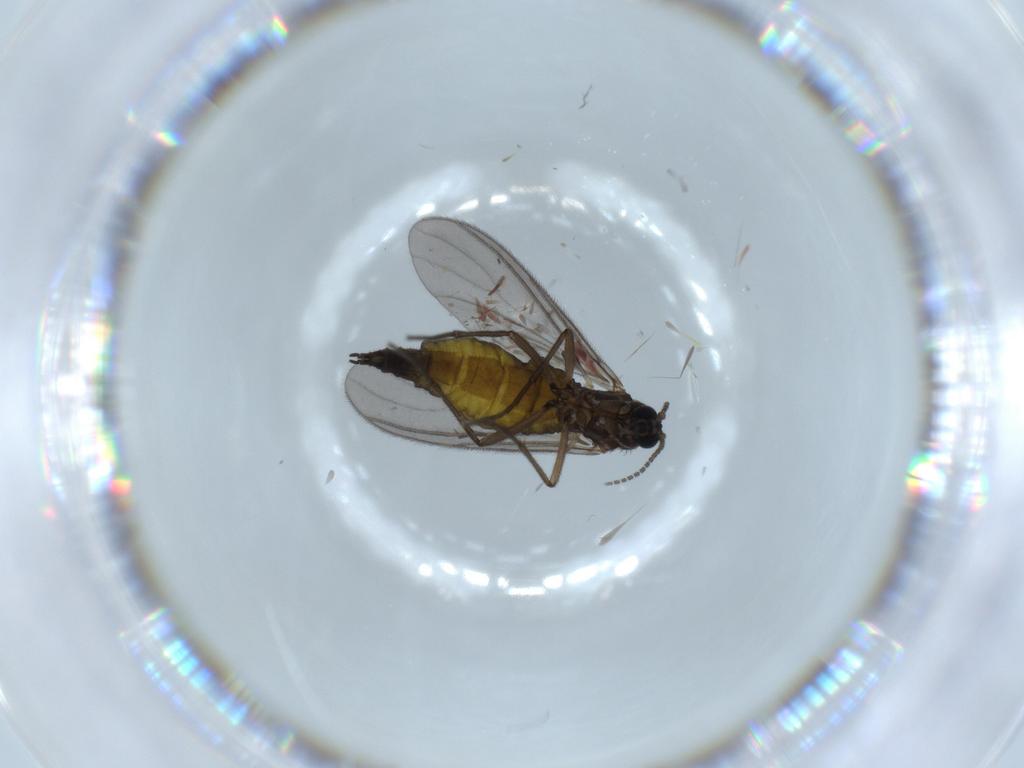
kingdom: Animalia
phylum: Arthropoda
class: Insecta
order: Diptera
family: Sciaridae
